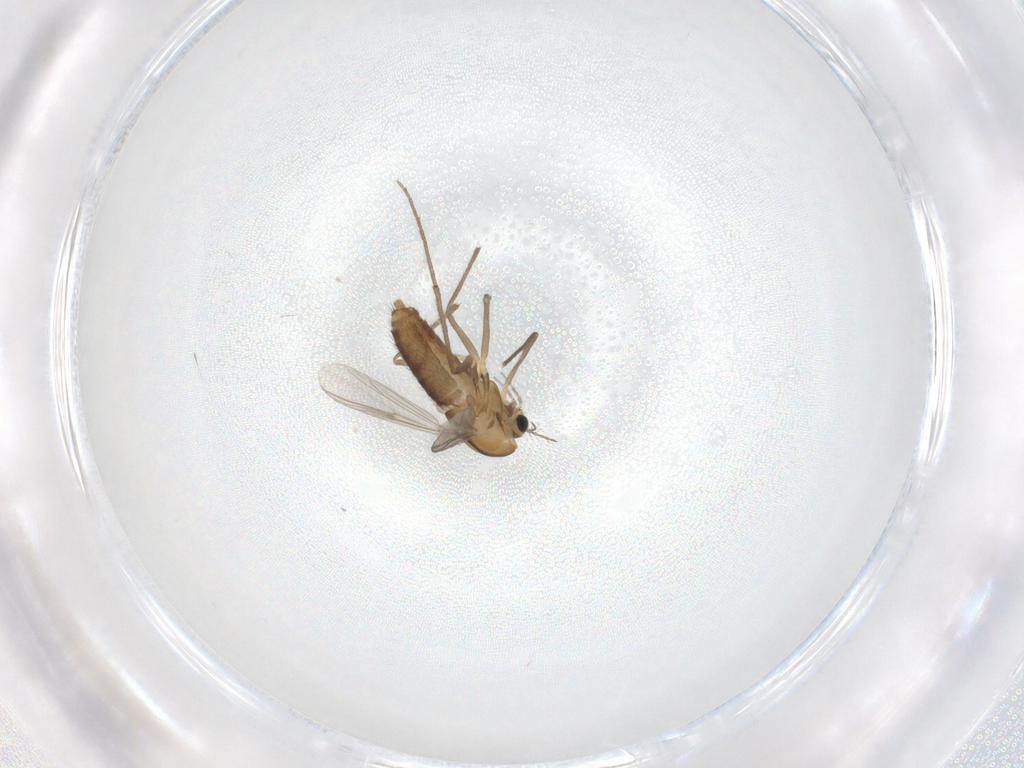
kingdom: Animalia
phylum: Arthropoda
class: Insecta
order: Diptera
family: Chironomidae
